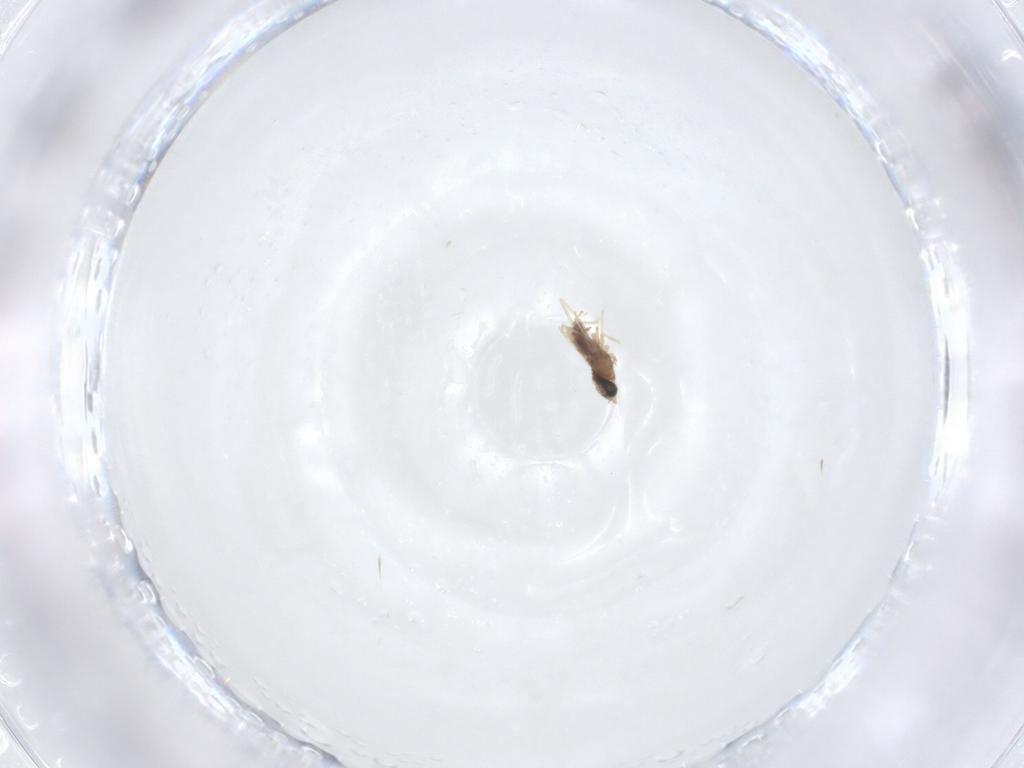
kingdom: Animalia
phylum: Arthropoda
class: Insecta
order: Diptera
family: Cecidomyiidae
